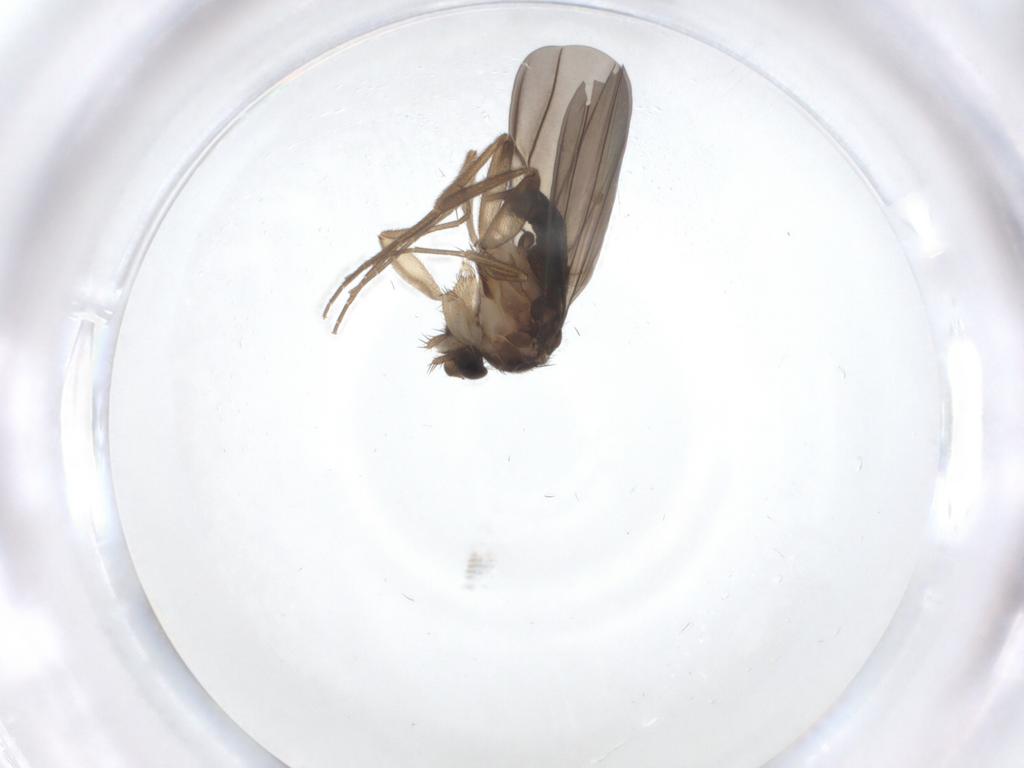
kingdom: Animalia
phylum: Arthropoda
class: Insecta
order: Diptera
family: Phoridae
